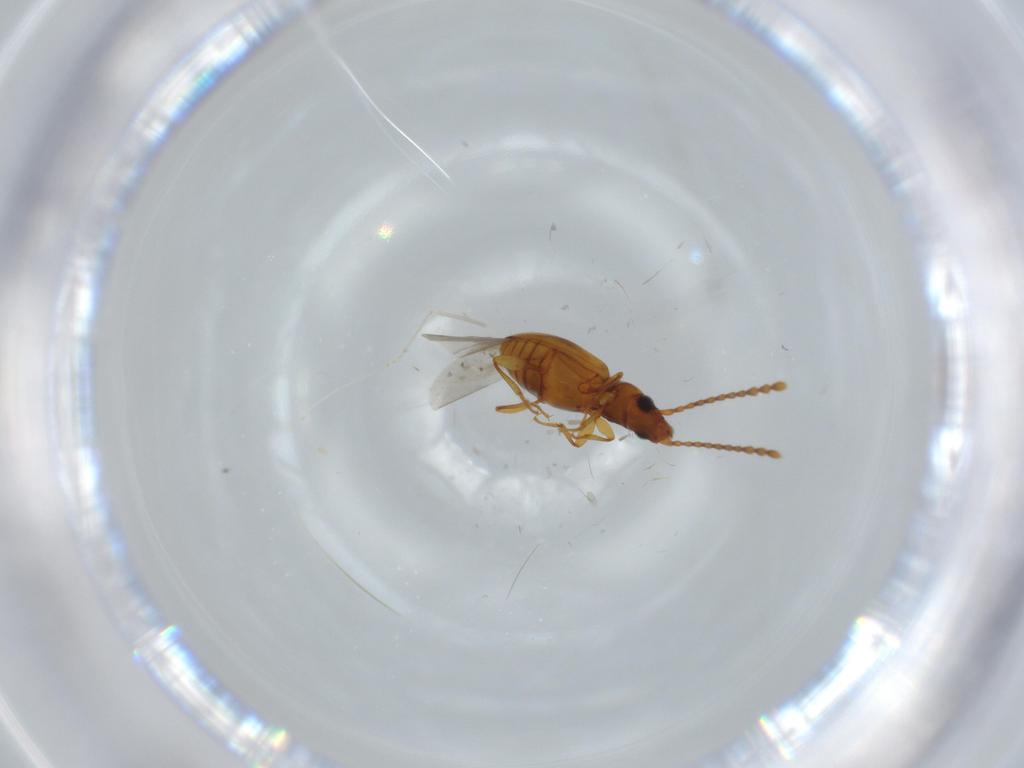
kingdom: Animalia
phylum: Arthropoda
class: Insecta
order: Coleoptera
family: Laemophloeidae
